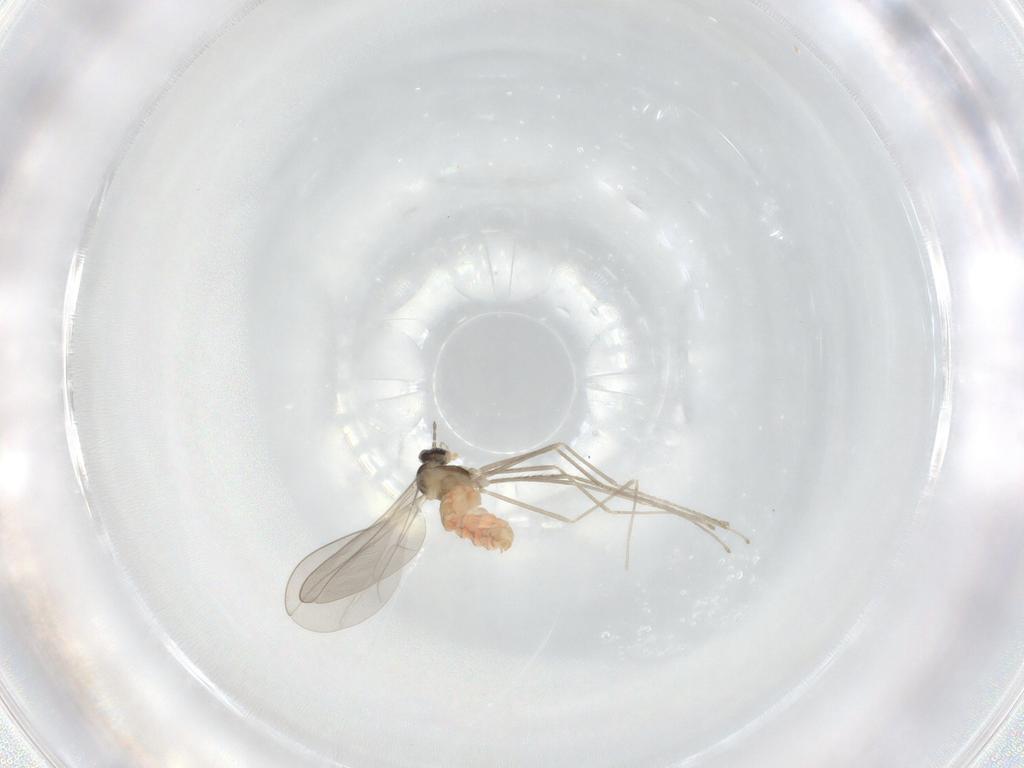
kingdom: Animalia
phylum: Arthropoda
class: Insecta
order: Diptera
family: Cecidomyiidae
